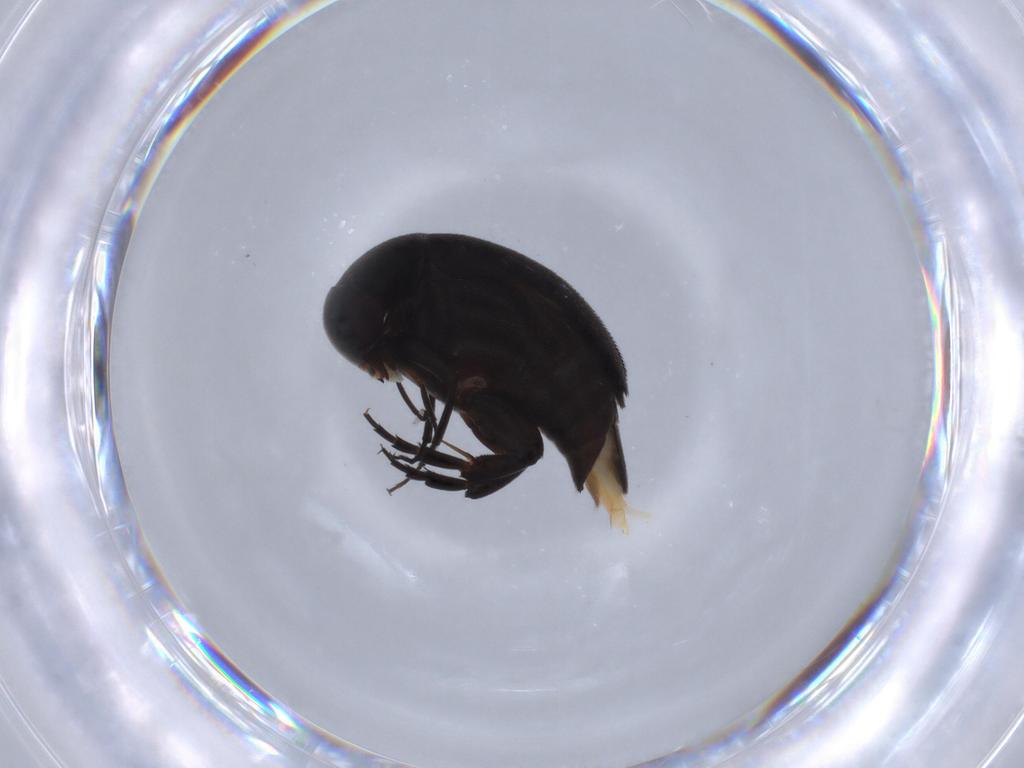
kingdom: Animalia
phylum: Arthropoda
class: Insecta
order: Coleoptera
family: Mordellidae
